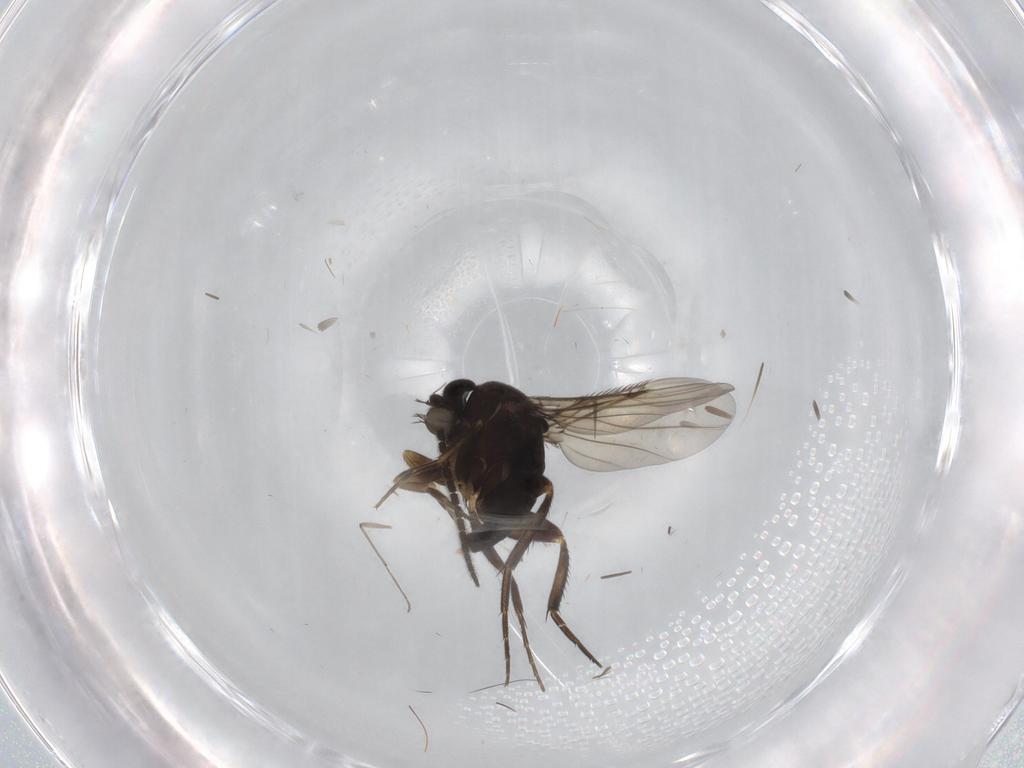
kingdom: Animalia
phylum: Arthropoda
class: Insecta
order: Diptera
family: Phoridae
